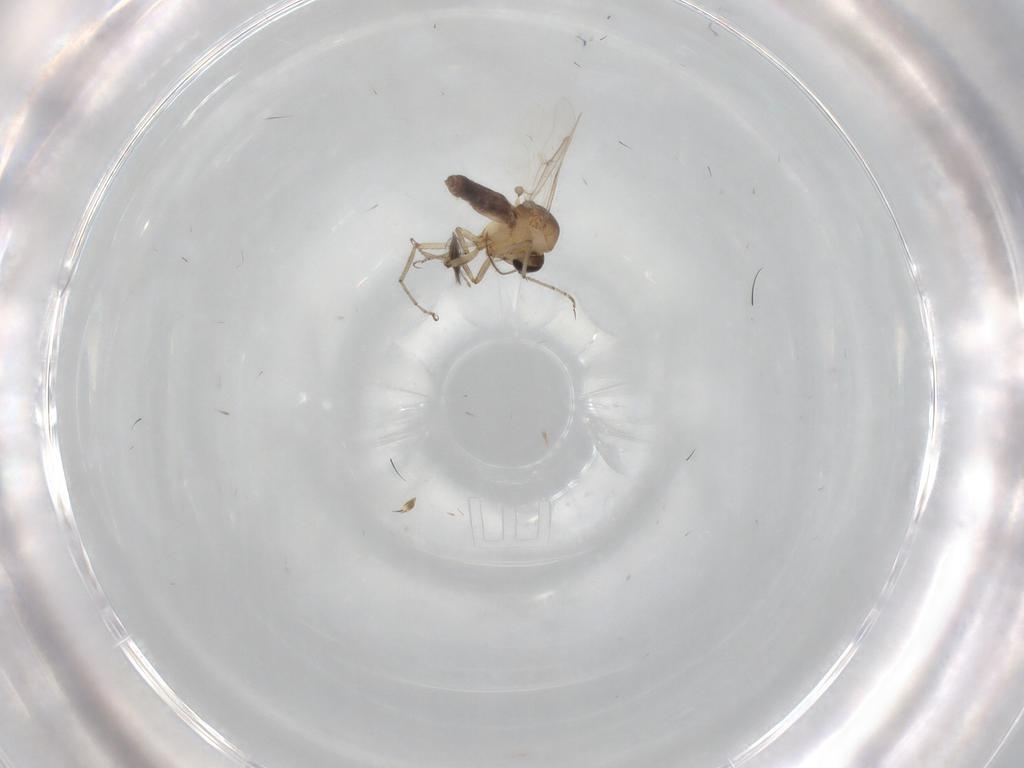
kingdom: Animalia
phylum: Arthropoda
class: Insecta
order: Diptera
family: Ceratopogonidae
